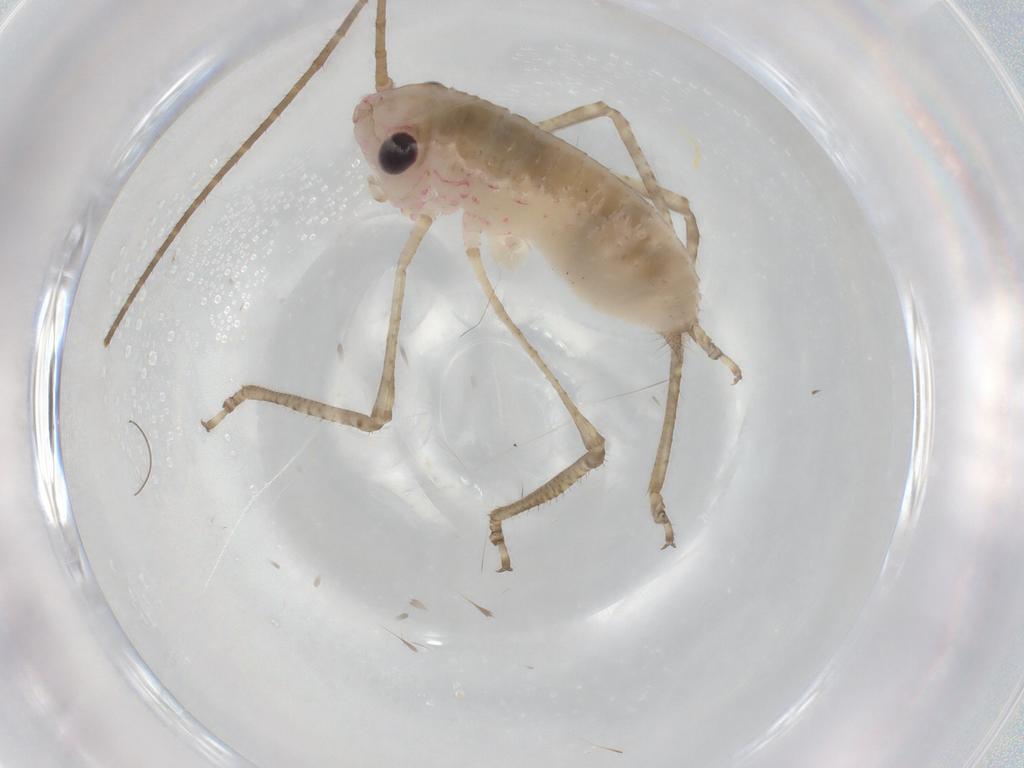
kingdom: Animalia
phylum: Arthropoda
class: Insecta
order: Orthoptera
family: Tettigoniidae
